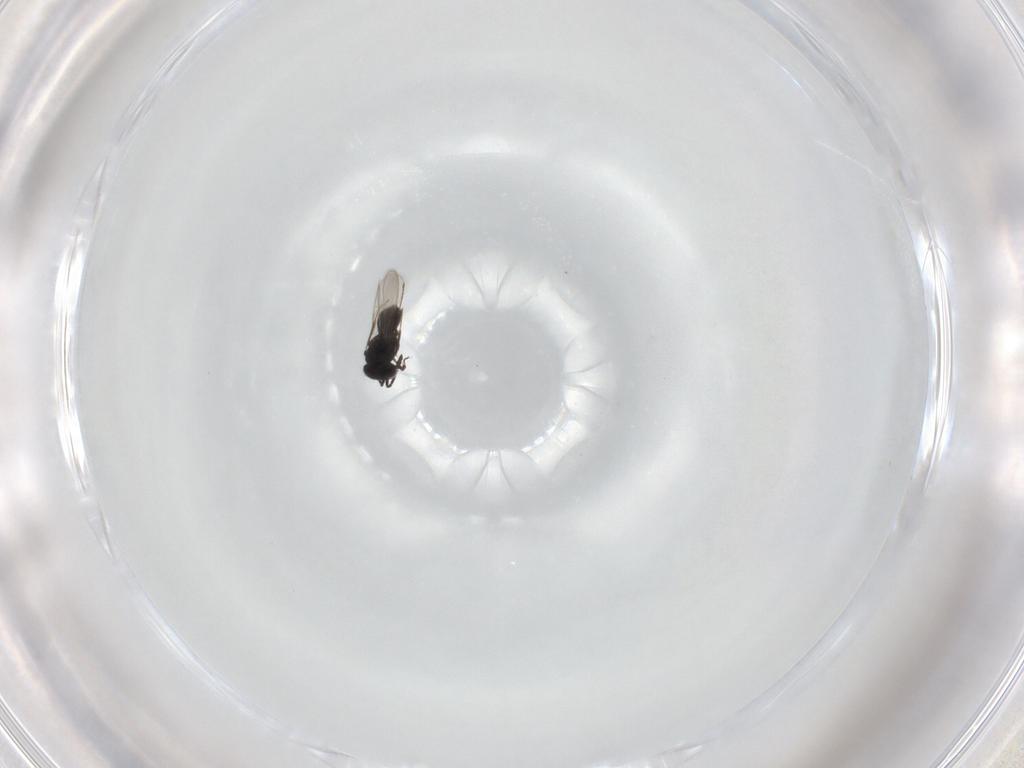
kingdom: Animalia
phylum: Arthropoda
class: Insecta
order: Hymenoptera
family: Scelionidae
